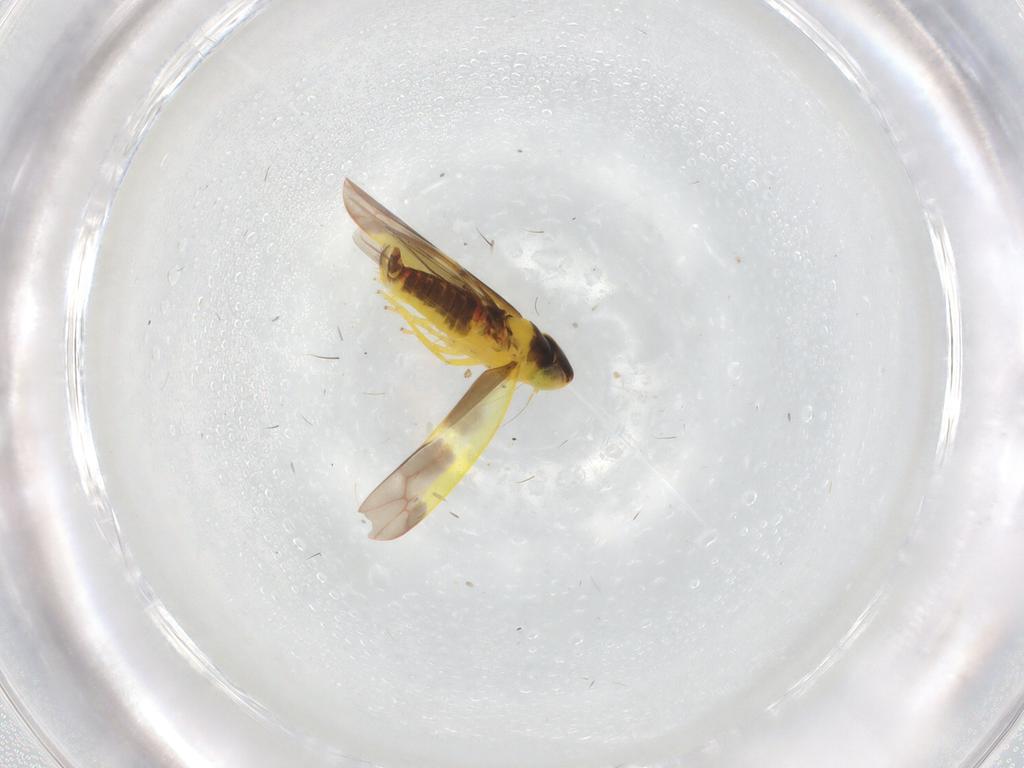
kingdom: Animalia
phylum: Arthropoda
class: Insecta
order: Hemiptera
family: Cicadellidae
